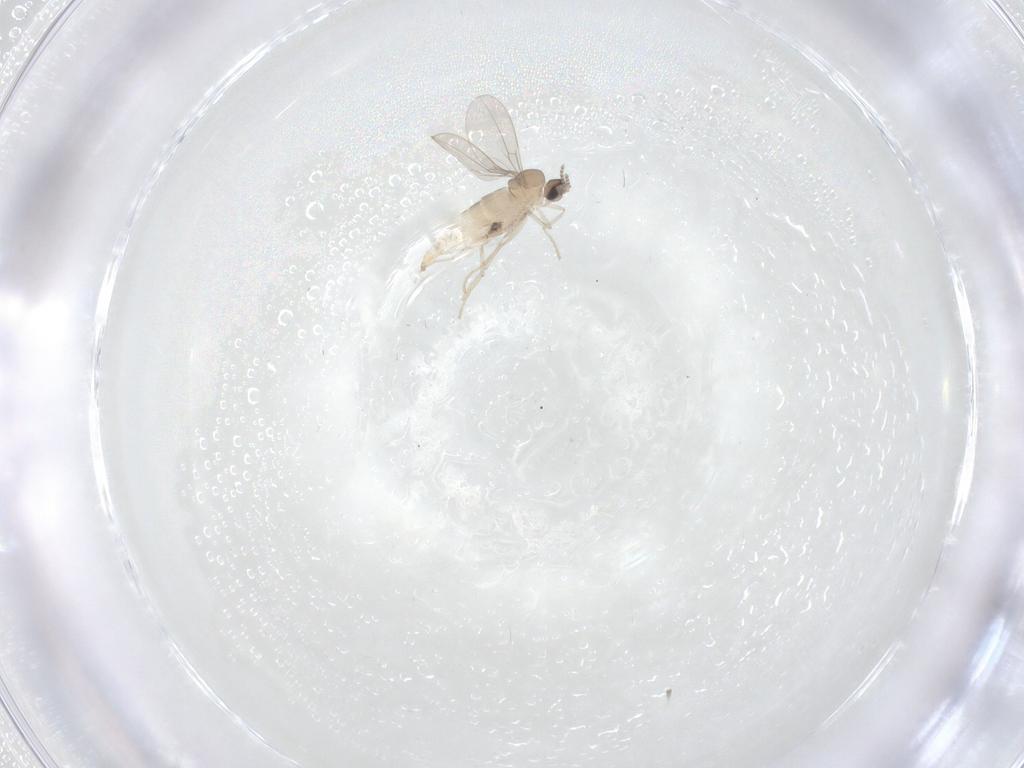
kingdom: Animalia
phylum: Arthropoda
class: Insecta
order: Diptera
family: Cecidomyiidae
